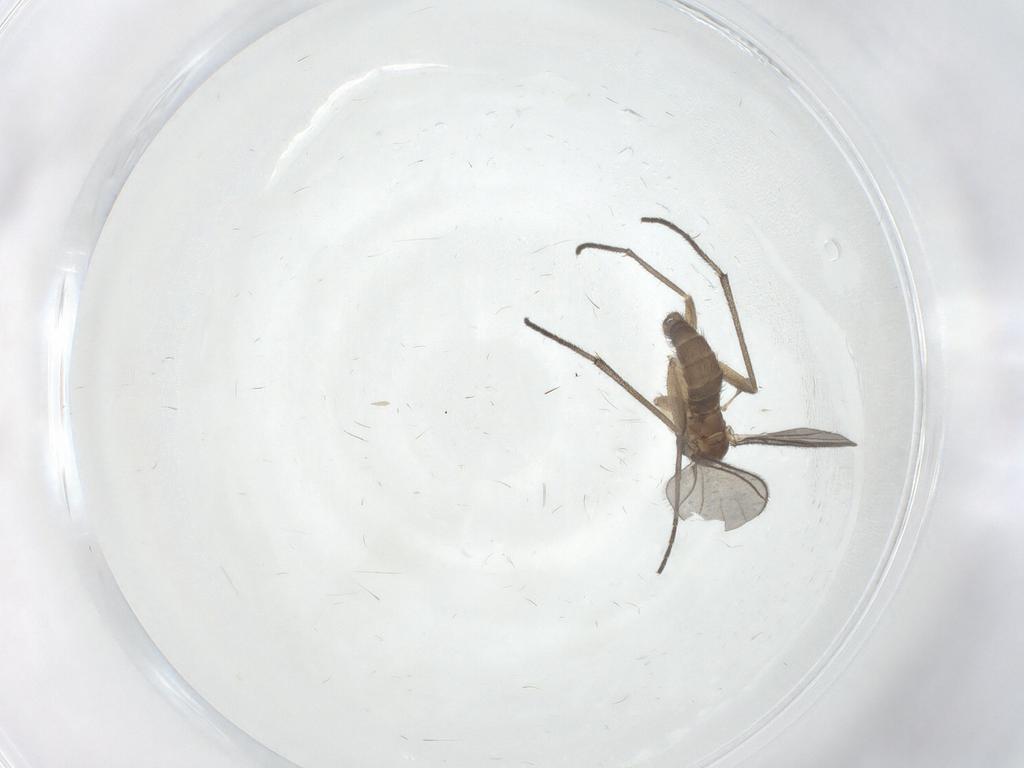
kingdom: Animalia
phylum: Arthropoda
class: Insecta
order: Diptera
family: Sciaridae
